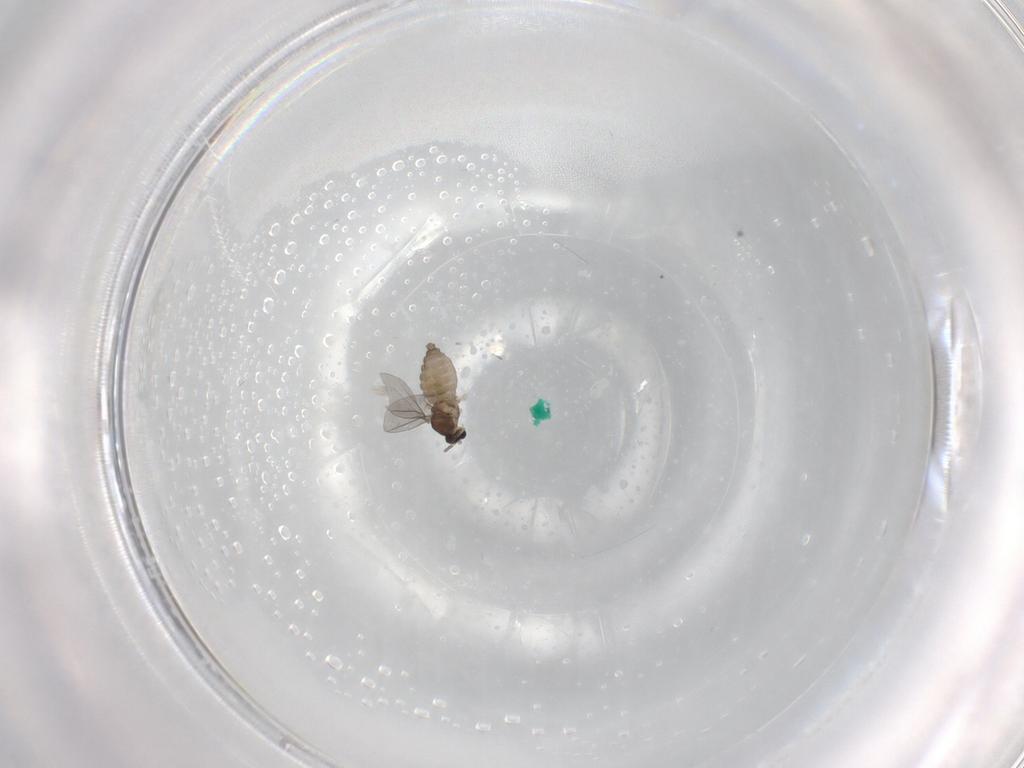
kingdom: Animalia
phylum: Arthropoda
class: Insecta
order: Diptera
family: Cecidomyiidae
